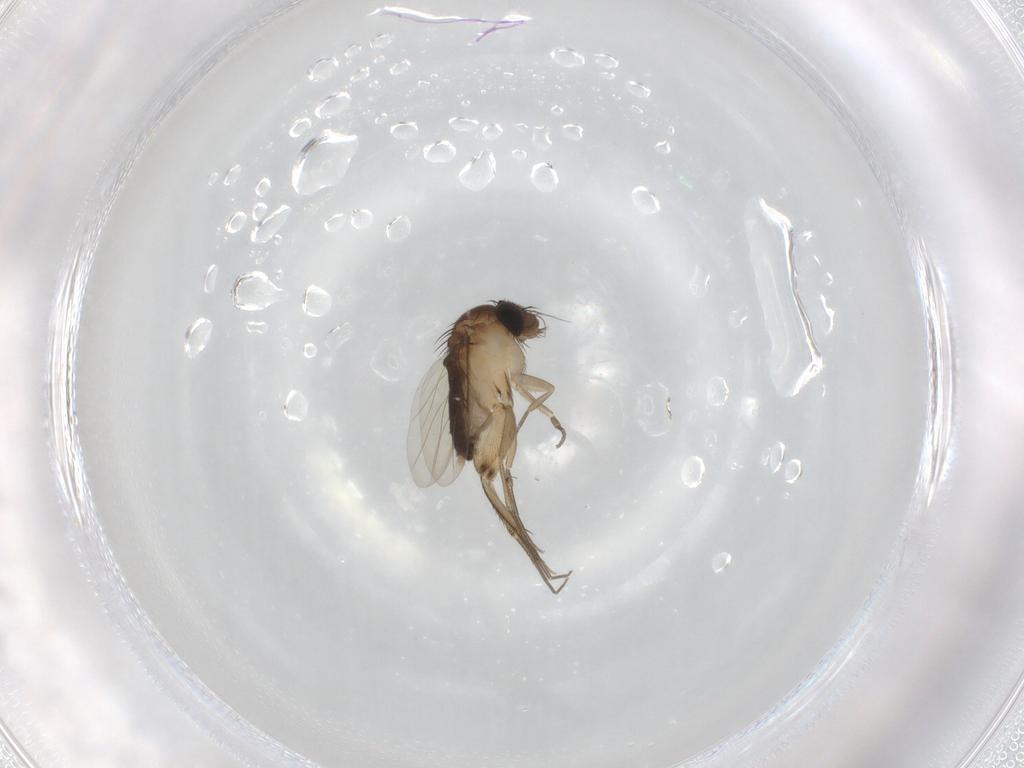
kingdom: Animalia
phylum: Arthropoda
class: Insecta
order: Diptera
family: Phoridae
